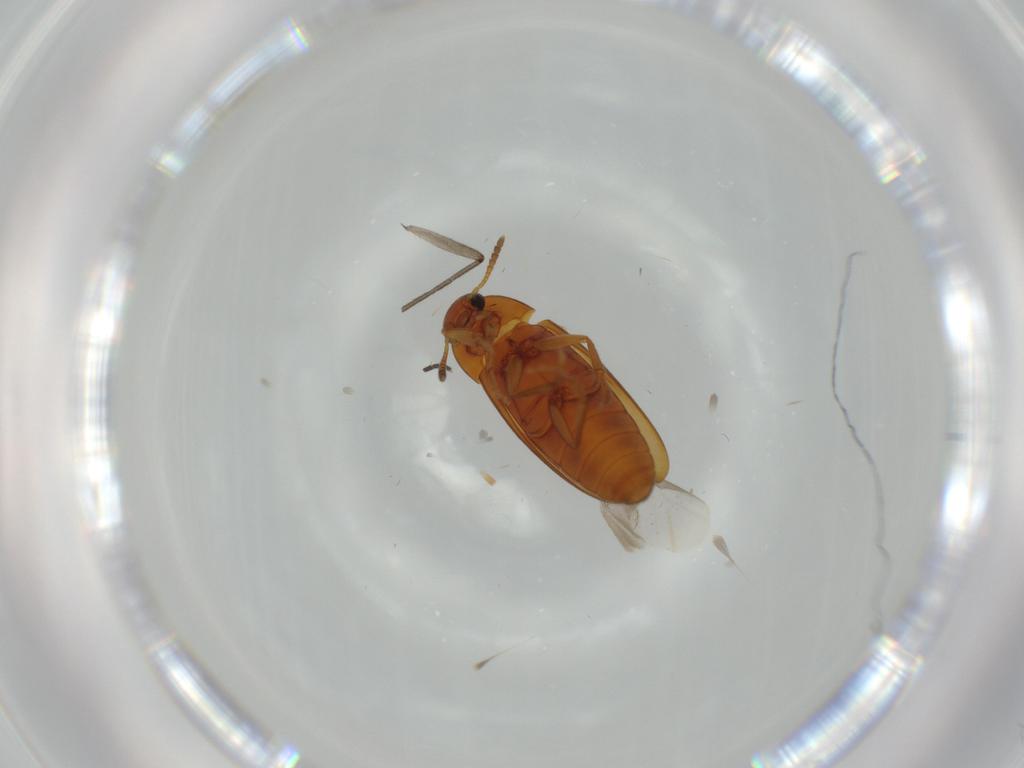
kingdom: Animalia
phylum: Arthropoda
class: Insecta
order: Coleoptera
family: Scraptiidae
